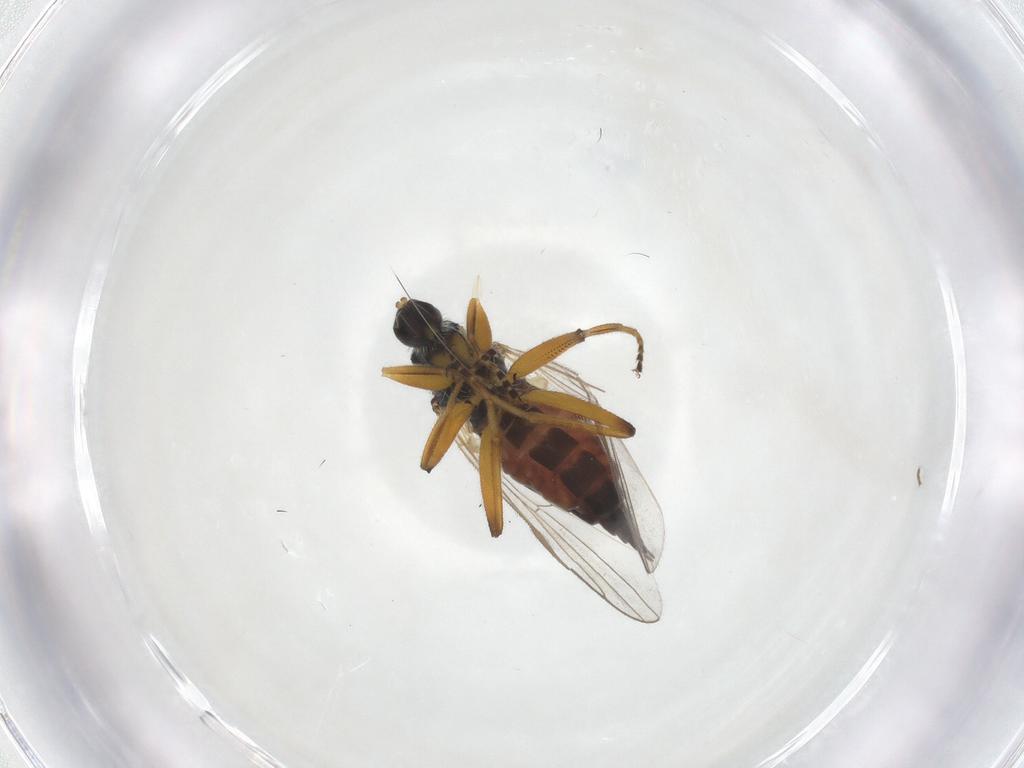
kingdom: Animalia
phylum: Arthropoda
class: Insecta
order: Diptera
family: Hybotidae
